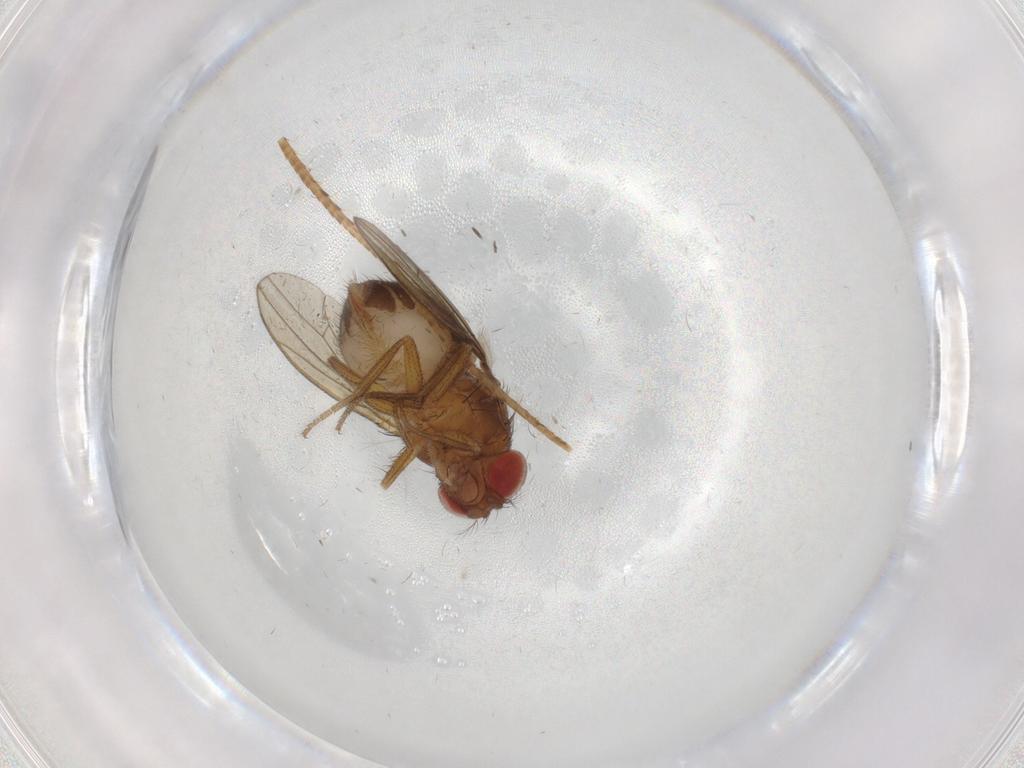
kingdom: Animalia
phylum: Arthropoda
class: Insecta
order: Diptera
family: Drosophilidae
